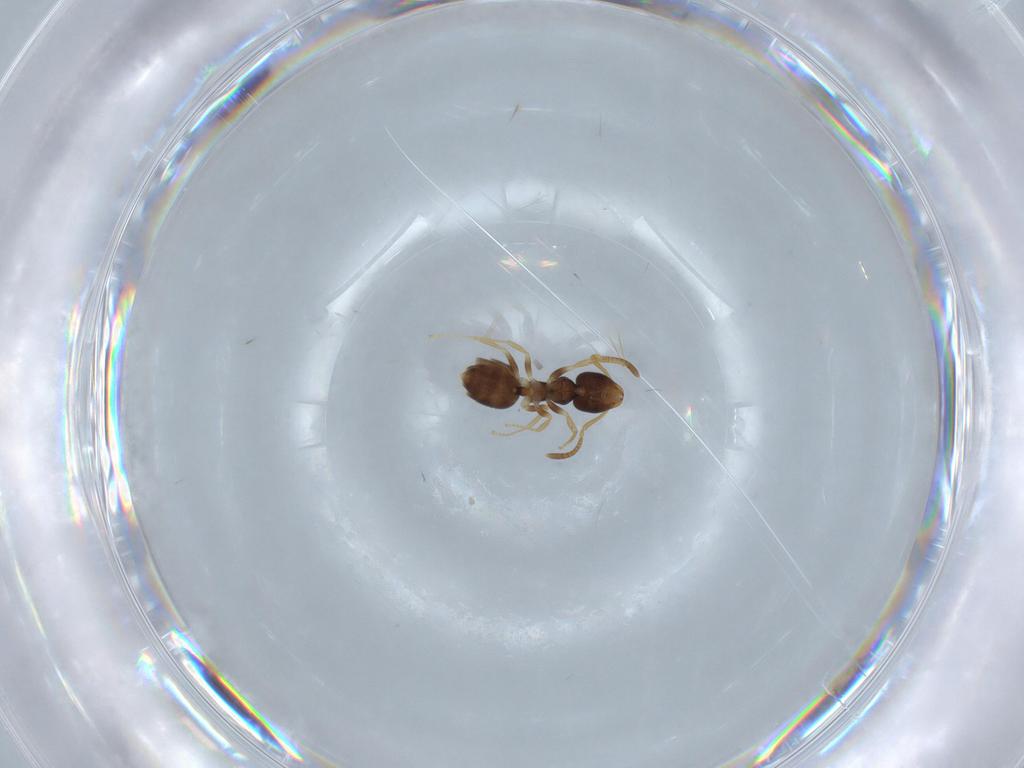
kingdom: Animalia
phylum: Arthropoda
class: Insecta
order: Hymenoptera
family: Formicidae
